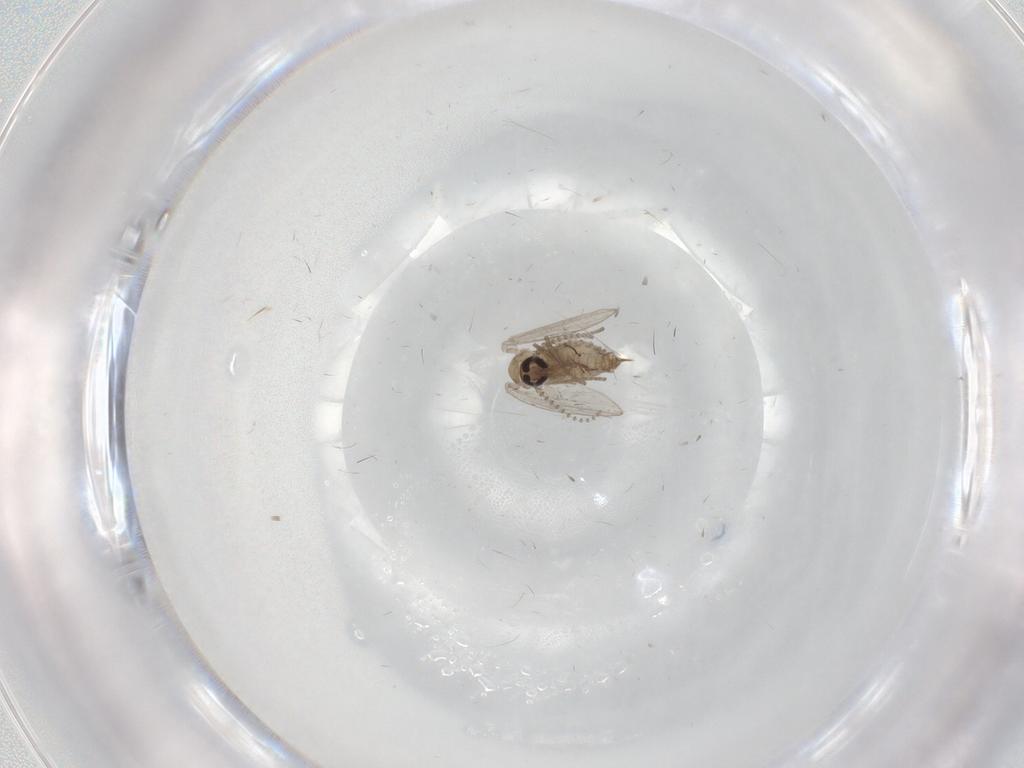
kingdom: Animalia
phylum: Arthropoda
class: Insecta
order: Diptera
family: Psychodidae
